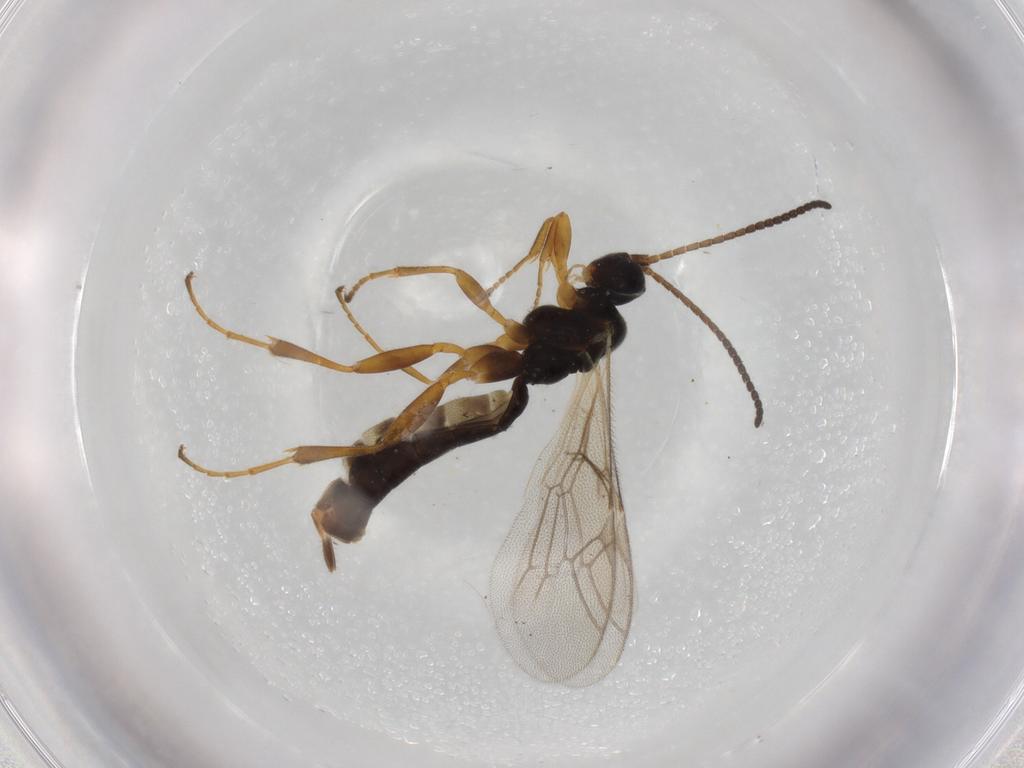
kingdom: Animalia
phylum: Arthropoda
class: Insecta
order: Hymenoptera
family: Ichneumonidae
